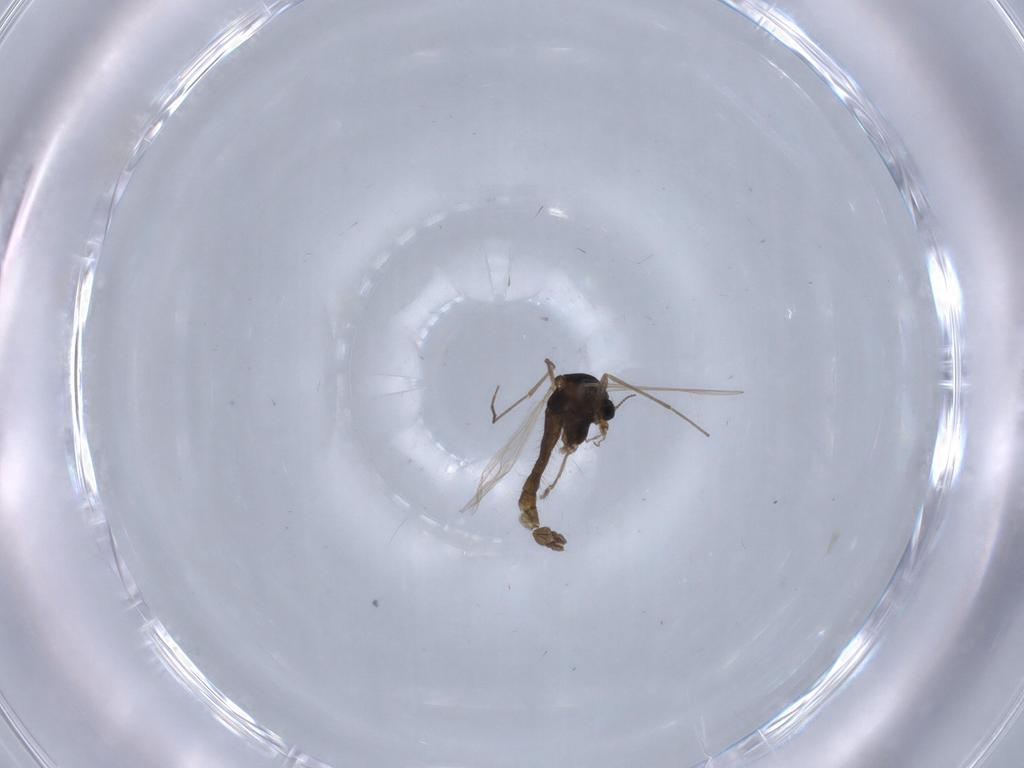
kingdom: Animalia
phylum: Arthropoda
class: Insecta
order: Diptera
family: Chironomidae
